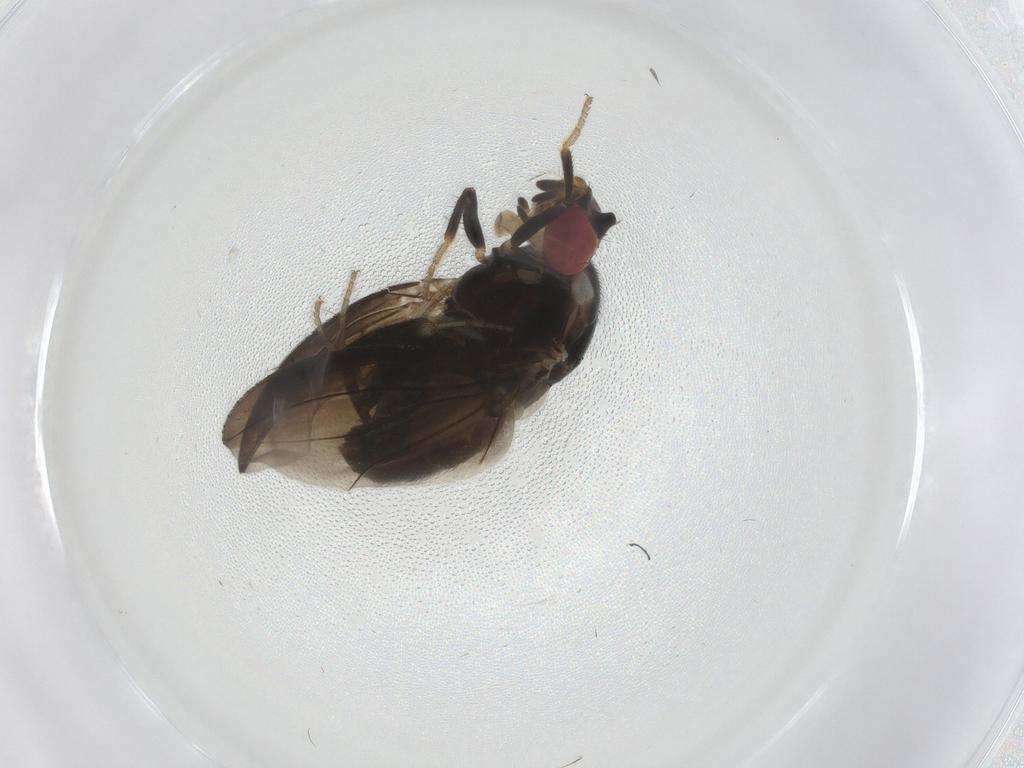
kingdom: Animalia
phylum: Arthropoda
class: Insecta
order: Diptera
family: Drosophilidae
